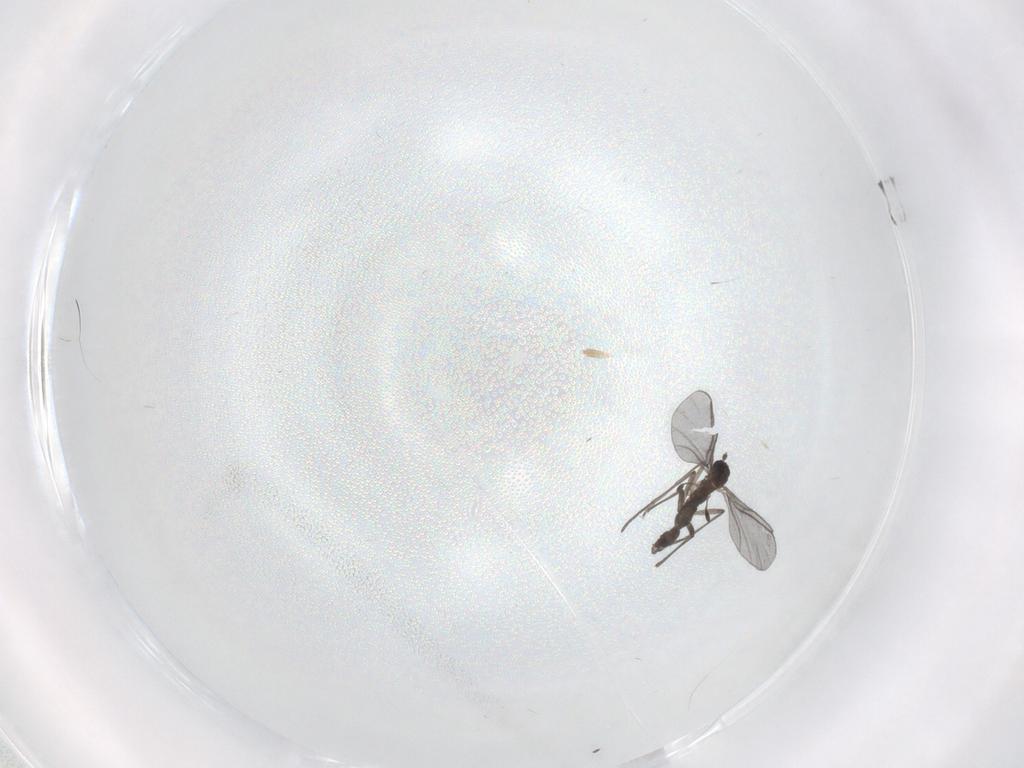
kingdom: Animalia
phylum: Arthropoda
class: Insecta
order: Diptera
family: Sciaridae
